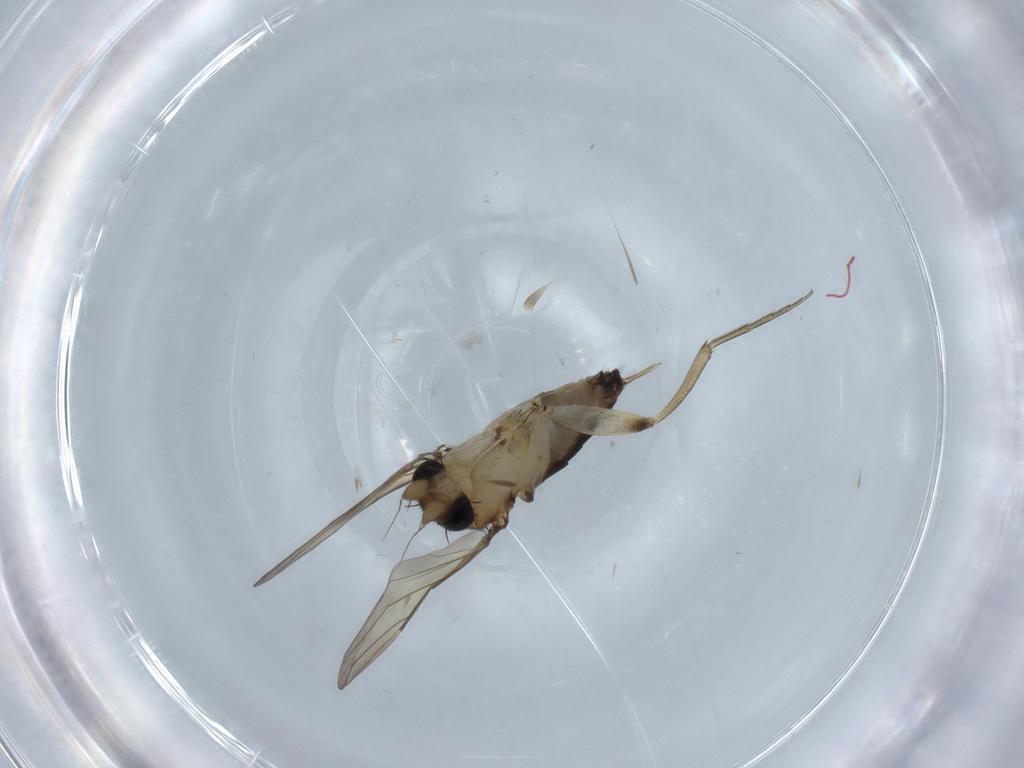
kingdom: Animalia
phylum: Arthropoda
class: Insecta
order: Diptera
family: Phoridae
